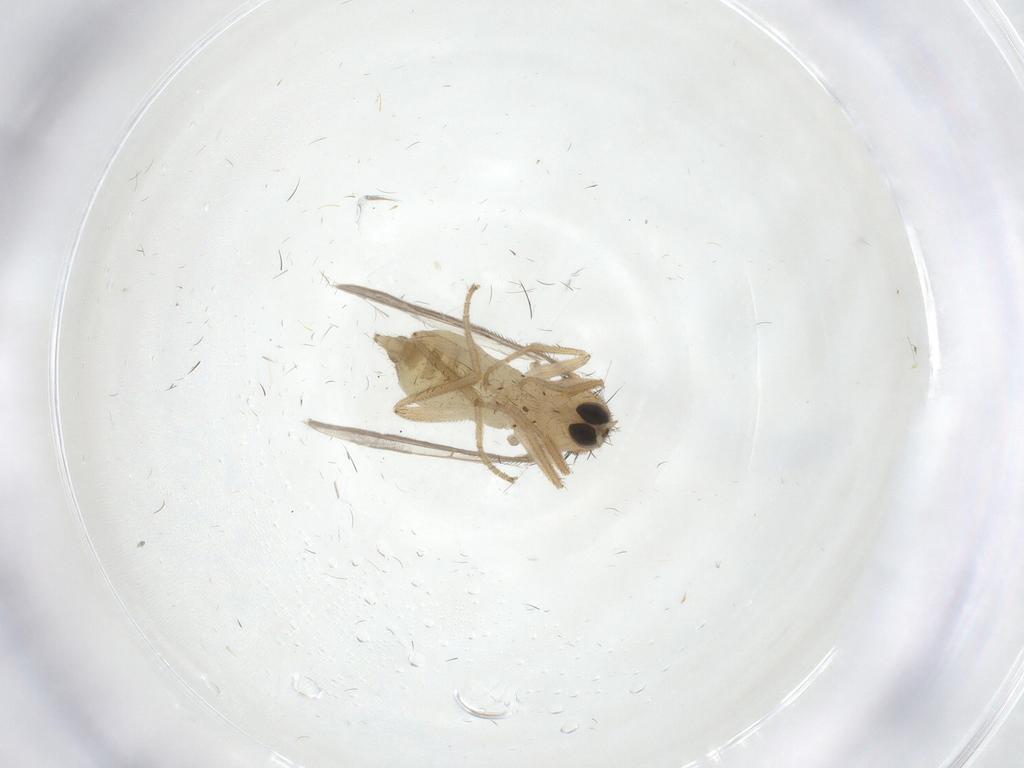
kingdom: Animalia
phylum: Arthropoda
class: Insecta
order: Diptera
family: Hybotidae
